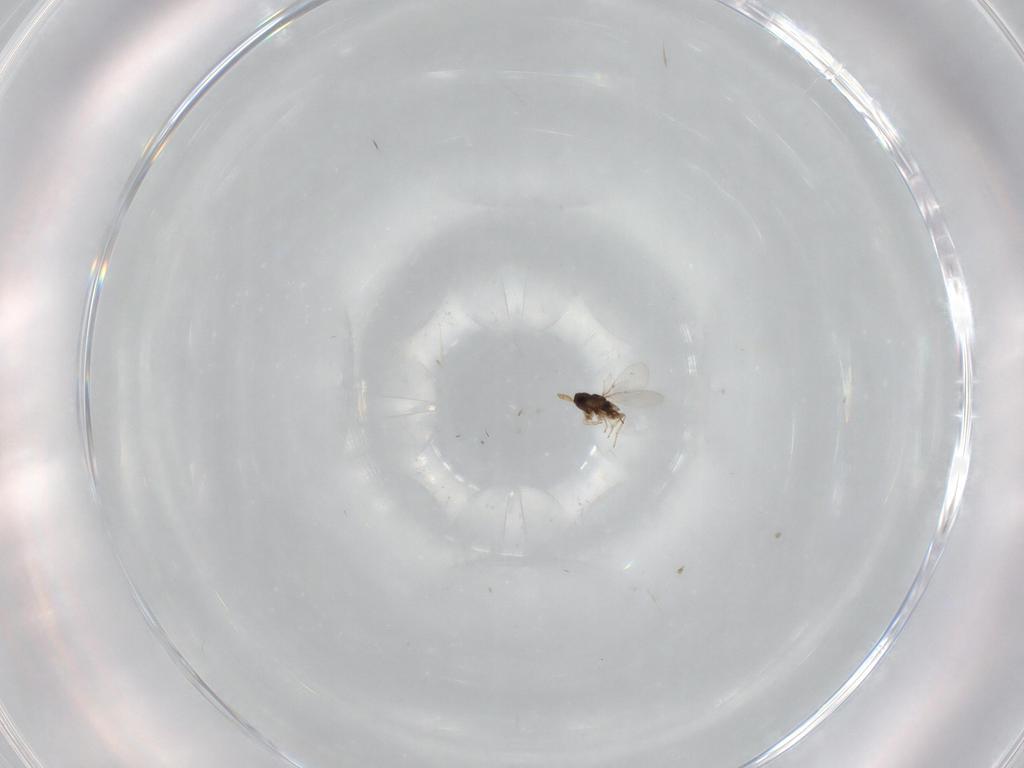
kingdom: Animalia
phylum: Arthropoda
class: Insecta
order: Hymenoptera
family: Encyrtidae
